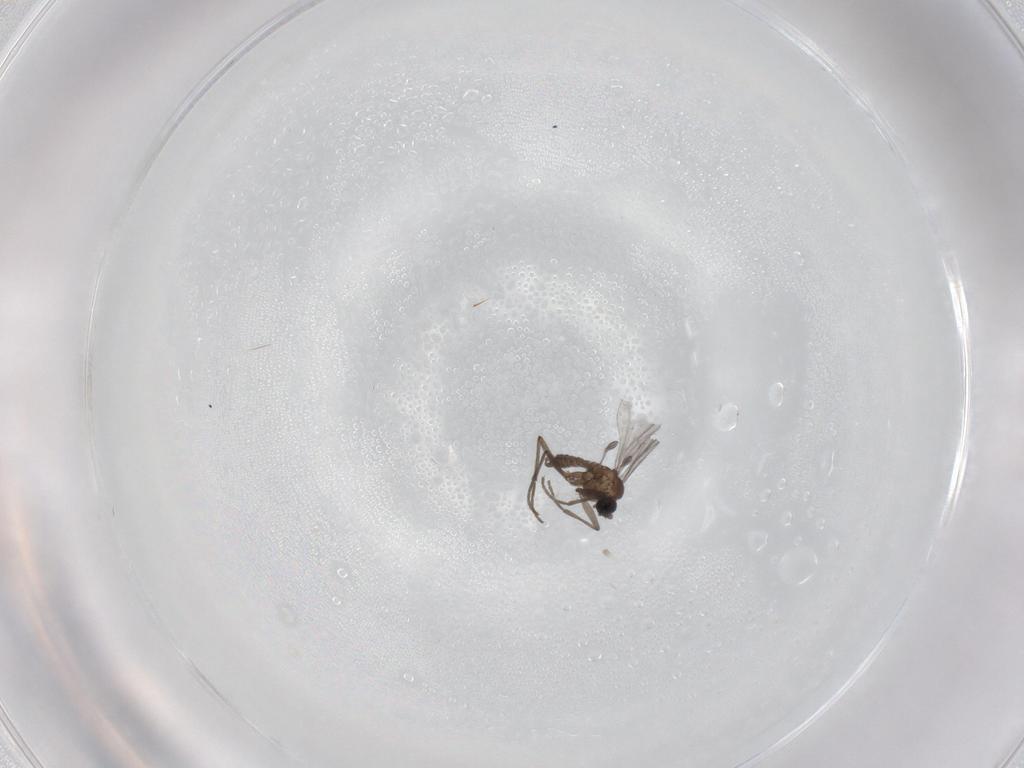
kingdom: Animalia
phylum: Arthropoda
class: Insecta
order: Diptera
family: Sciaridae
